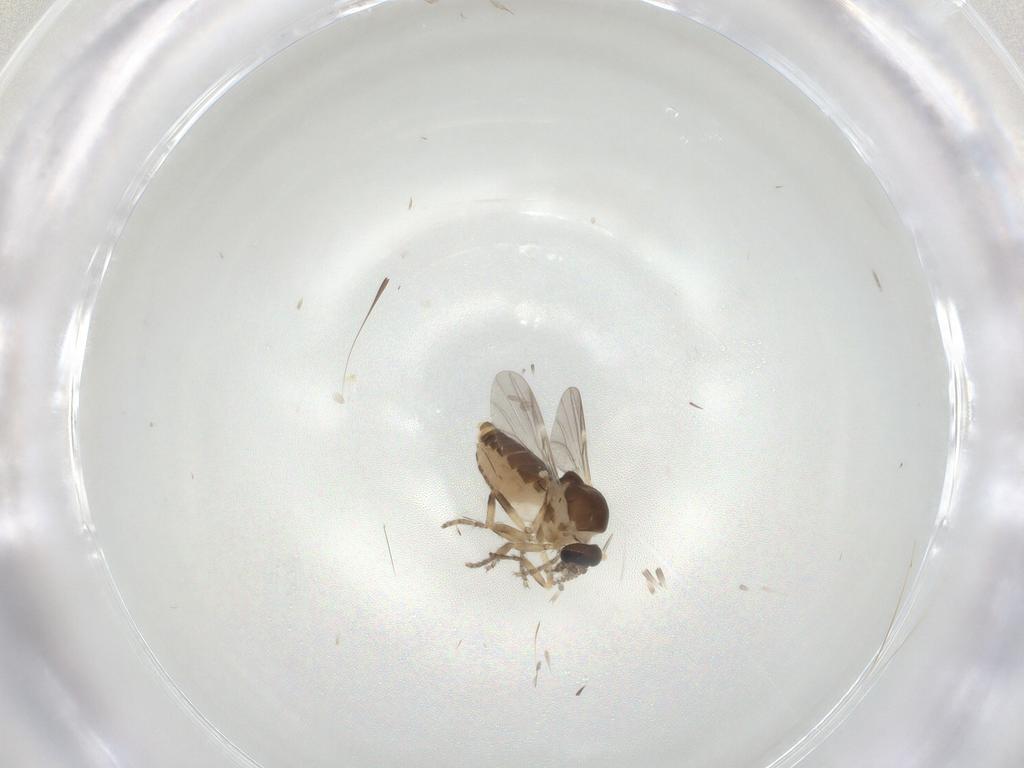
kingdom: Animalia
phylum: Arthropoda
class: Insecta
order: Diptera
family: Ceratopogonidae
